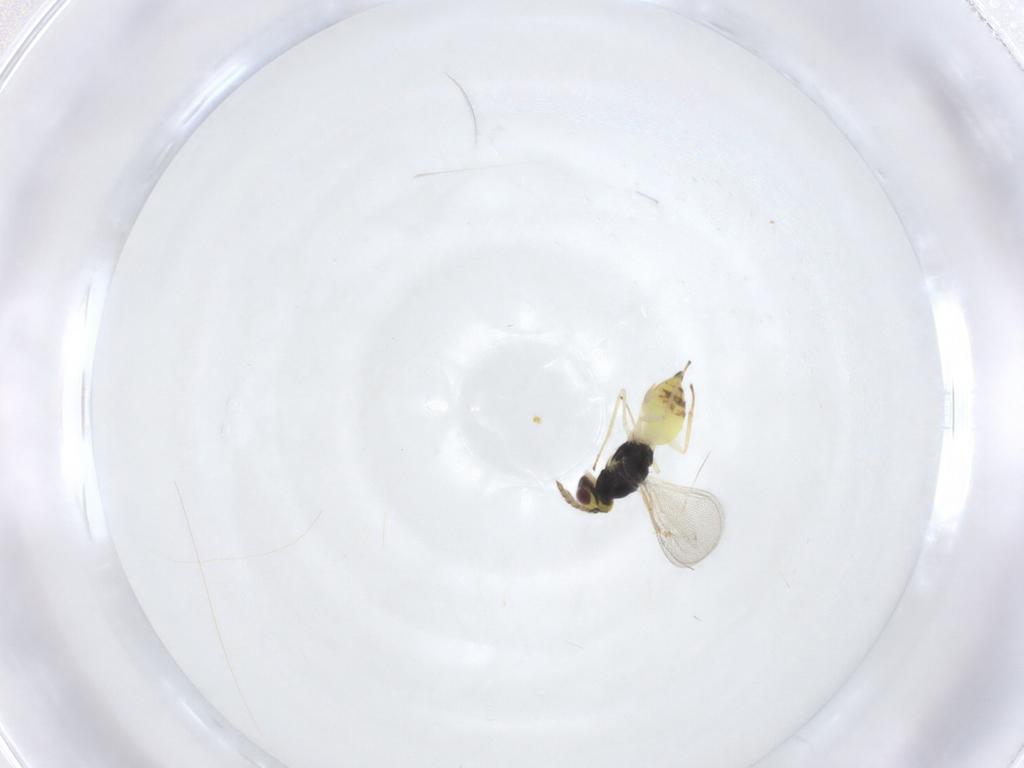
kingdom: Animalia
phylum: Arthropoda
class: Insecta
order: Hymenoptera
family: Eulophidae
